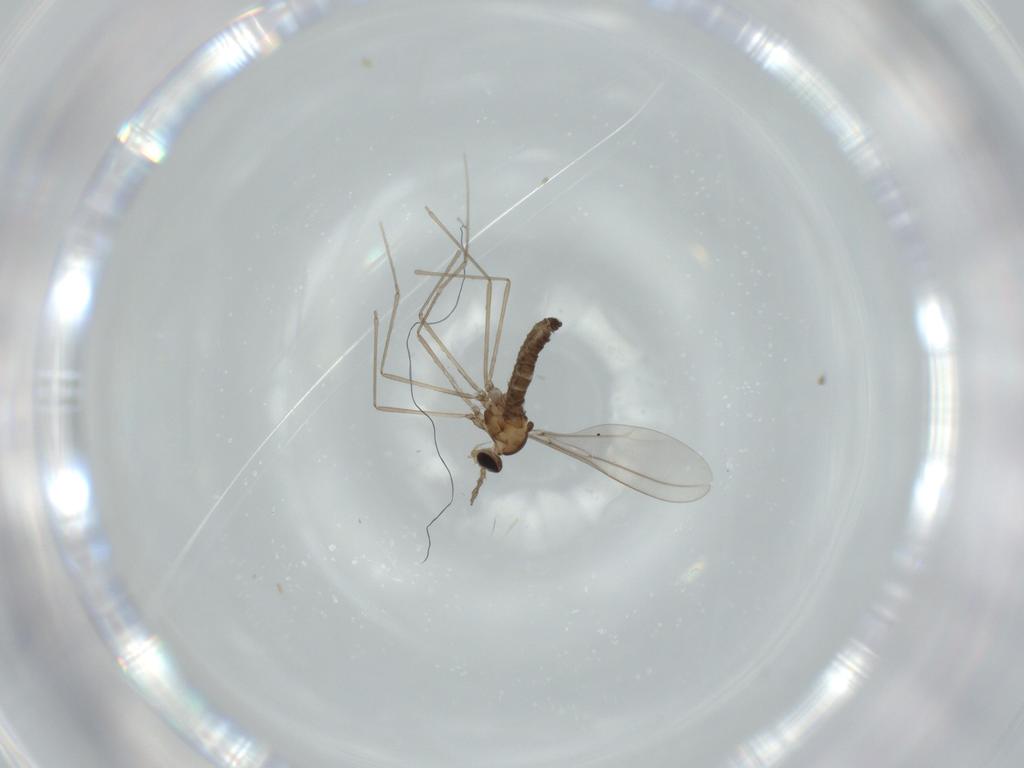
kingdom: Animalia
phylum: Arthropoda
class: Insecta
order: Diptera
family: Cecidomyiidae
